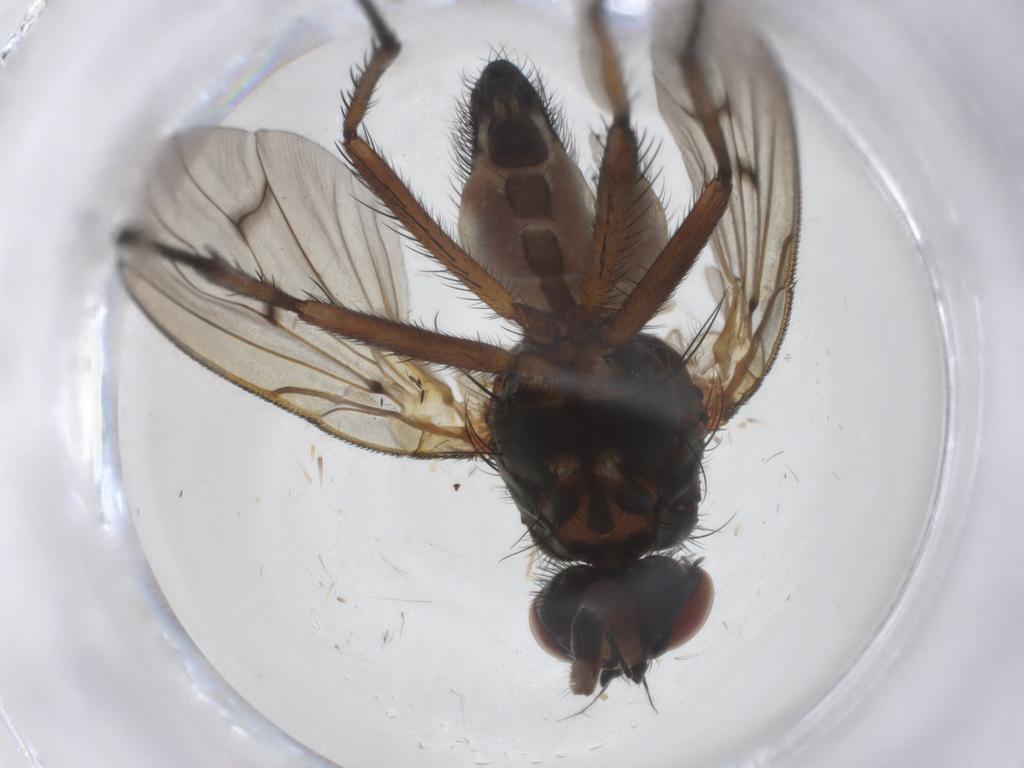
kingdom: Animalia
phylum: Arthropoda
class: Insecta
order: Diptera
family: Anthomyiidae
